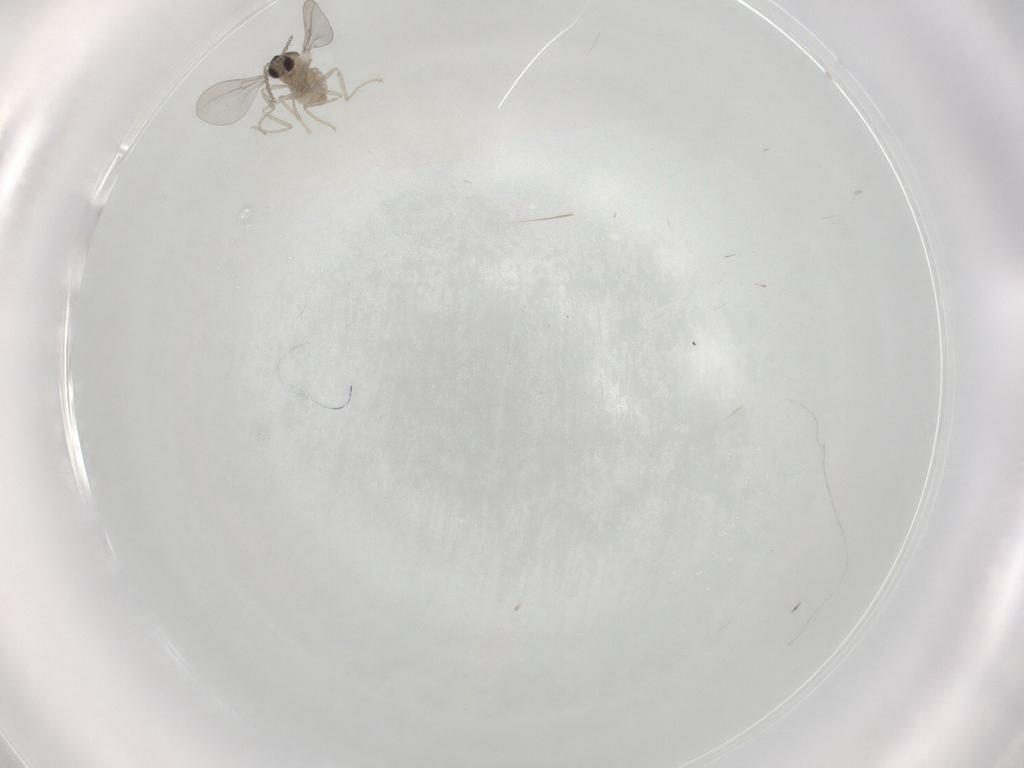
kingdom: Animalia
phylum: Arthropoda
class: Insecta
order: Diptera
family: Cecidomyiidae
